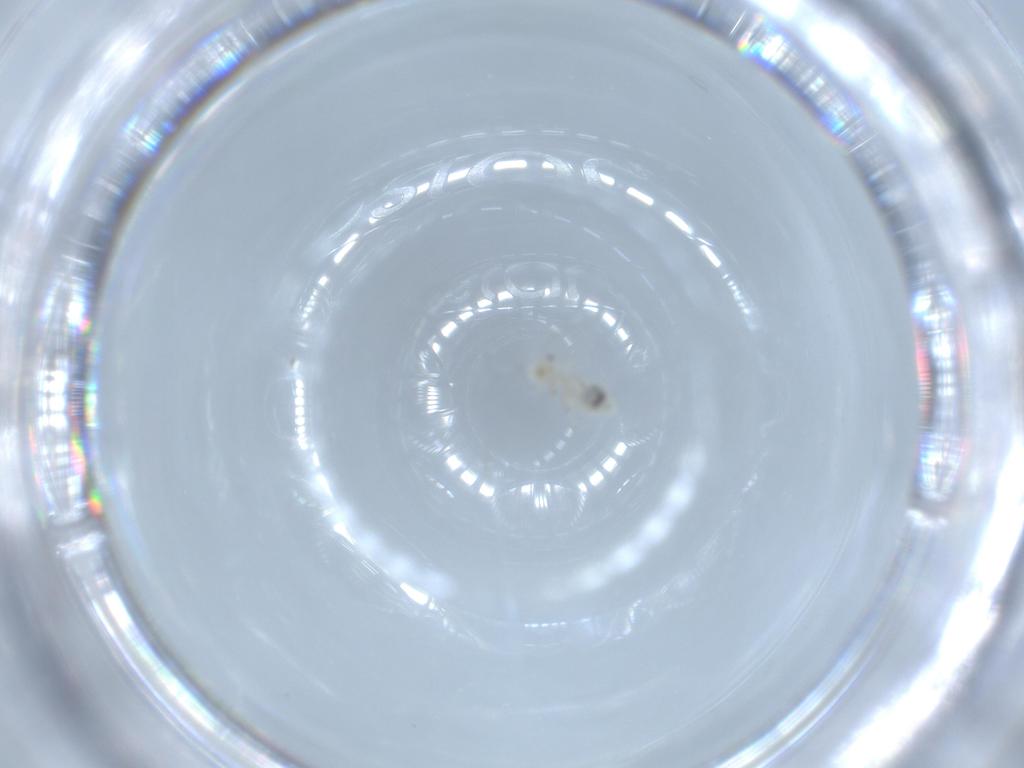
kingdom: Animalia
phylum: Arthropoda
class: Insecta
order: Psocodea
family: Caeciliusidae
